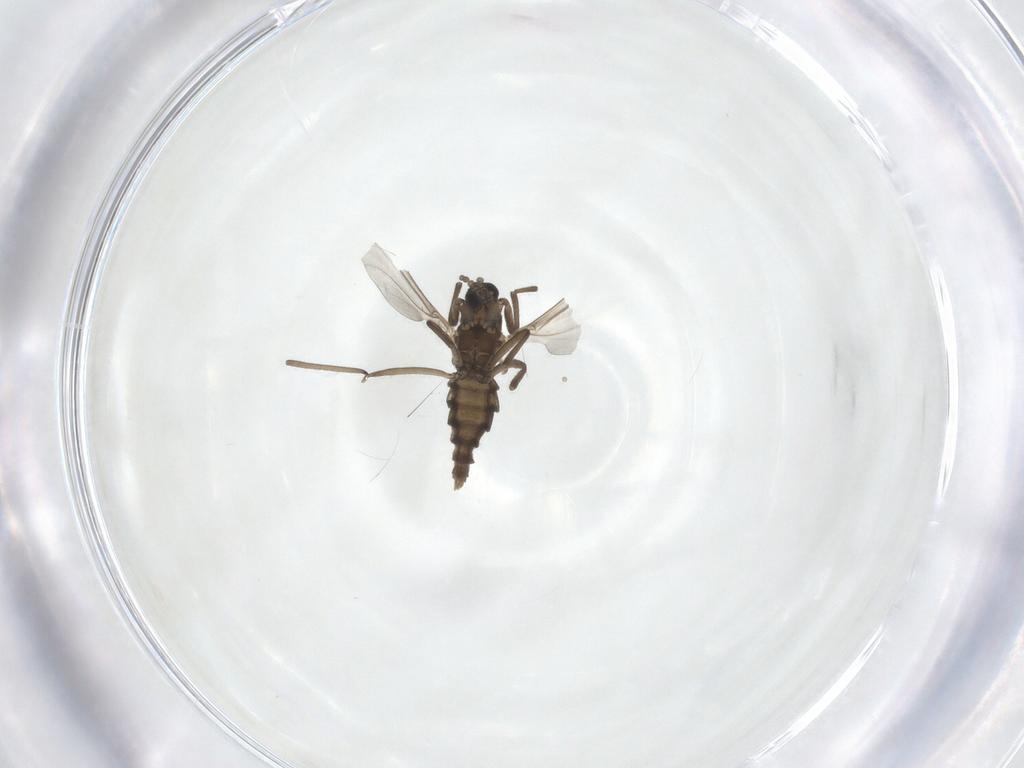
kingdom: Animalia
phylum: Arthropoda
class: Insecta
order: Diptera
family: Cecidomyiidae
